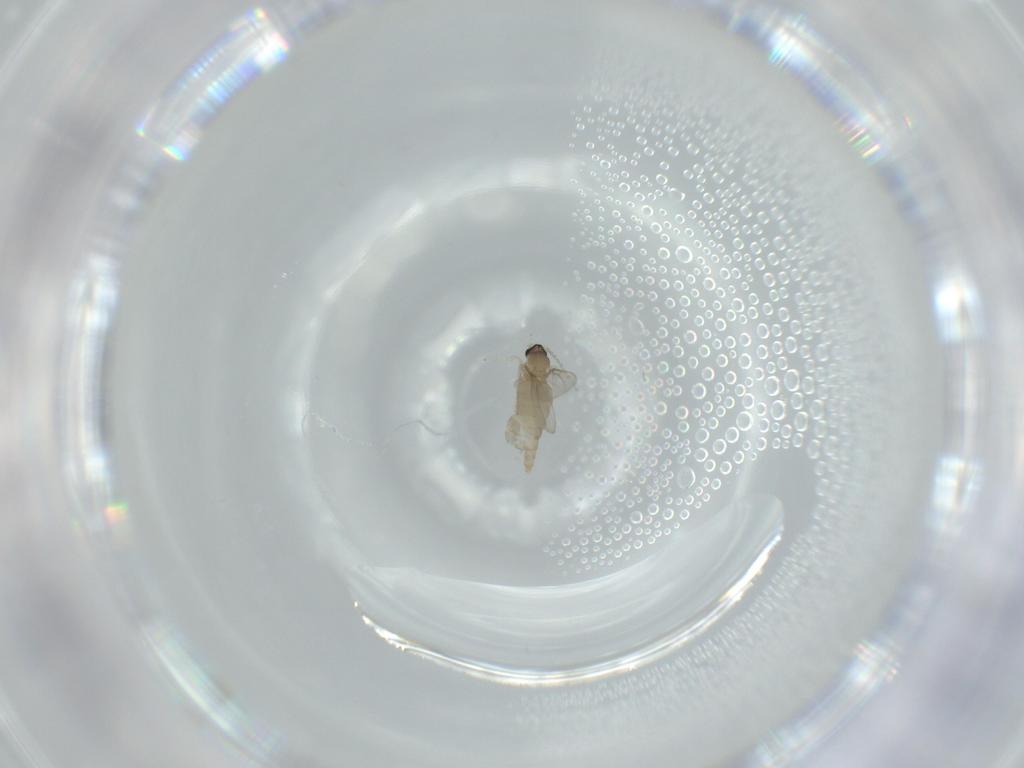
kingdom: Animalia
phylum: Arthropoda
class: Insecta
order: Diptera
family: Cecidomyiidae
